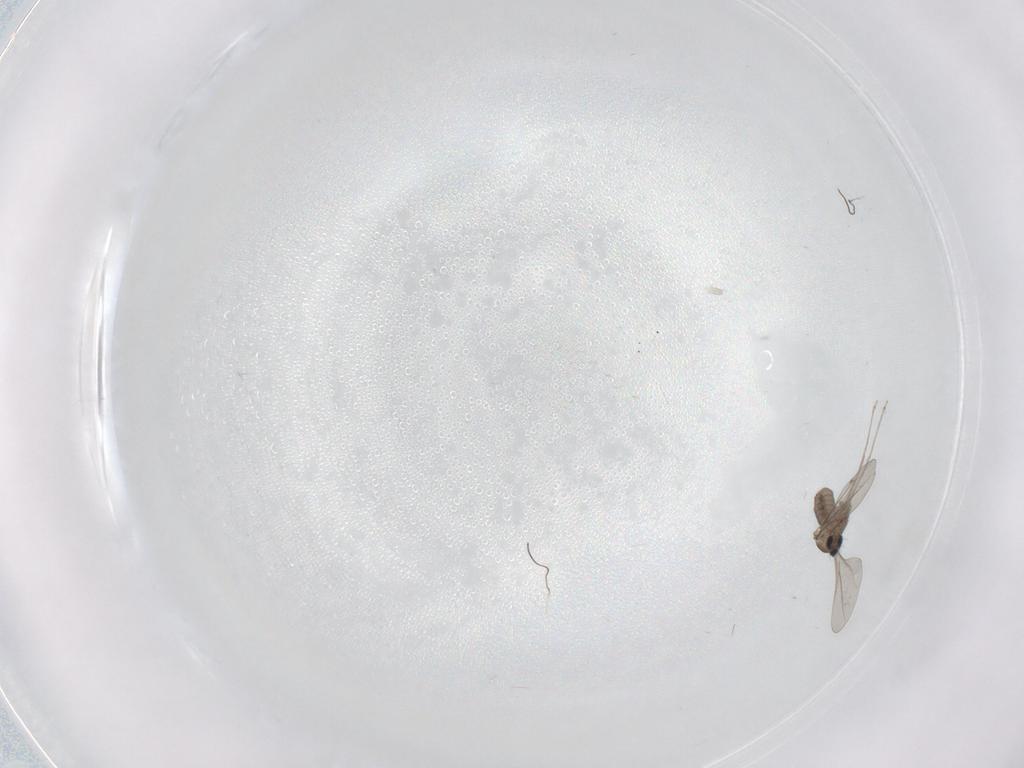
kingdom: Animalia
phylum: Arthropoda
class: Insecta
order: Diptera
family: Cecidomyiidae
